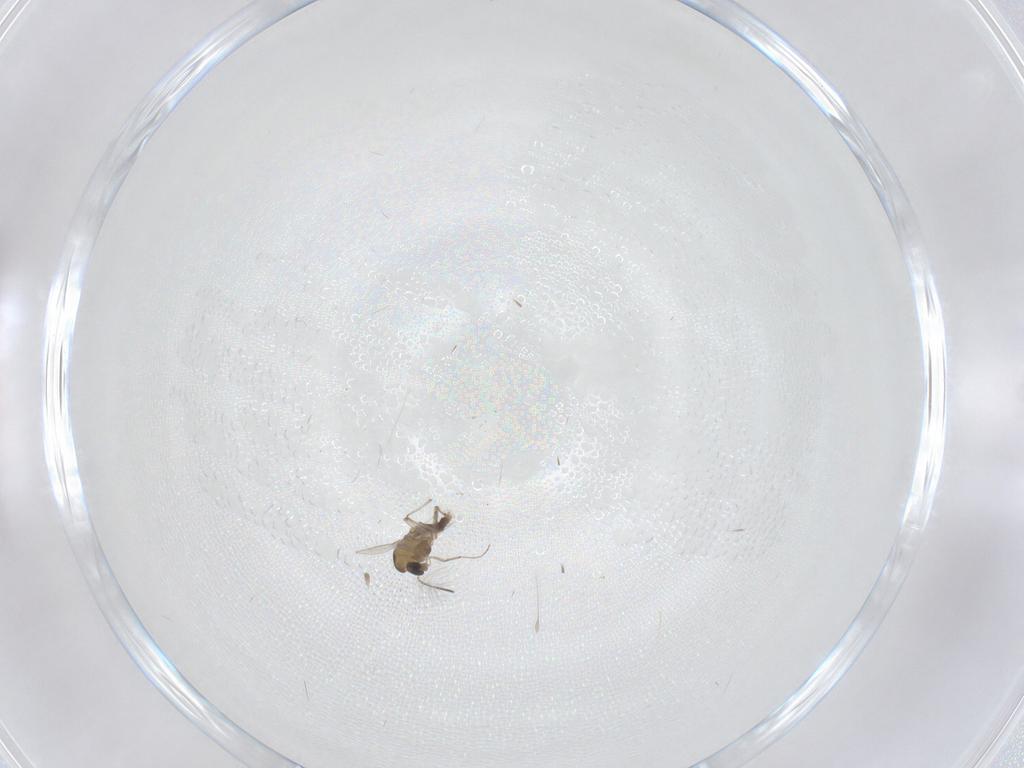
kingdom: Animalia
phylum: Arthropoda
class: Insecta
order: Diptera
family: Chironomidae
